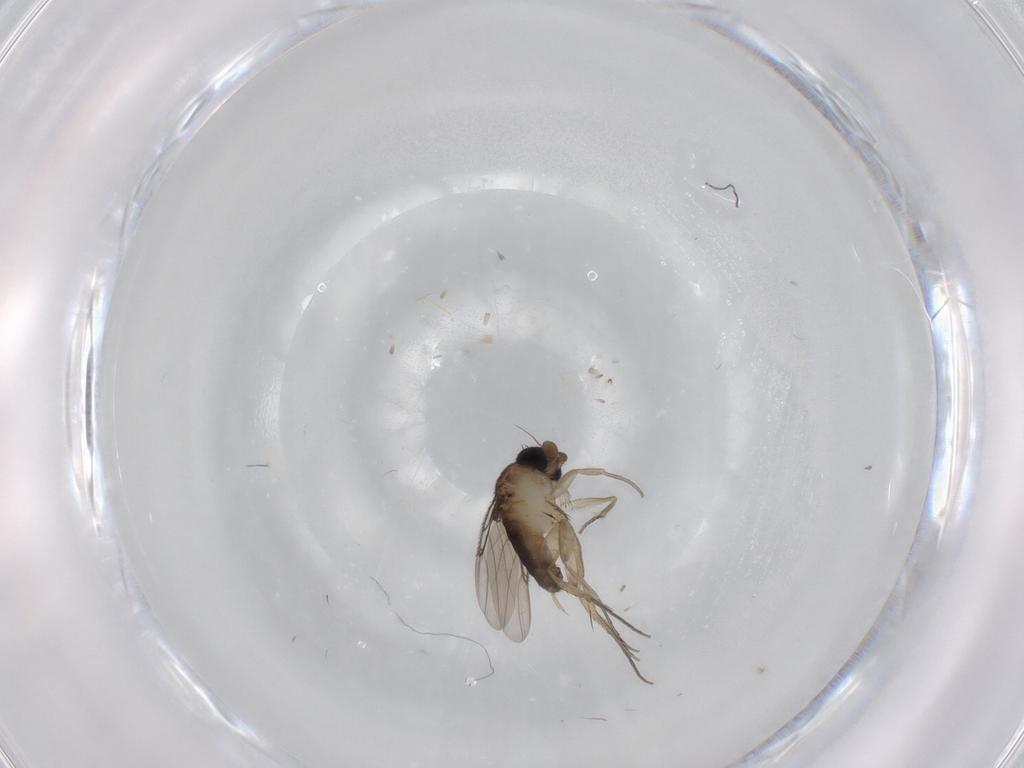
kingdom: Animalia
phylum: Arthropoda
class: Insecta
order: Diptera
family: Phoridae
